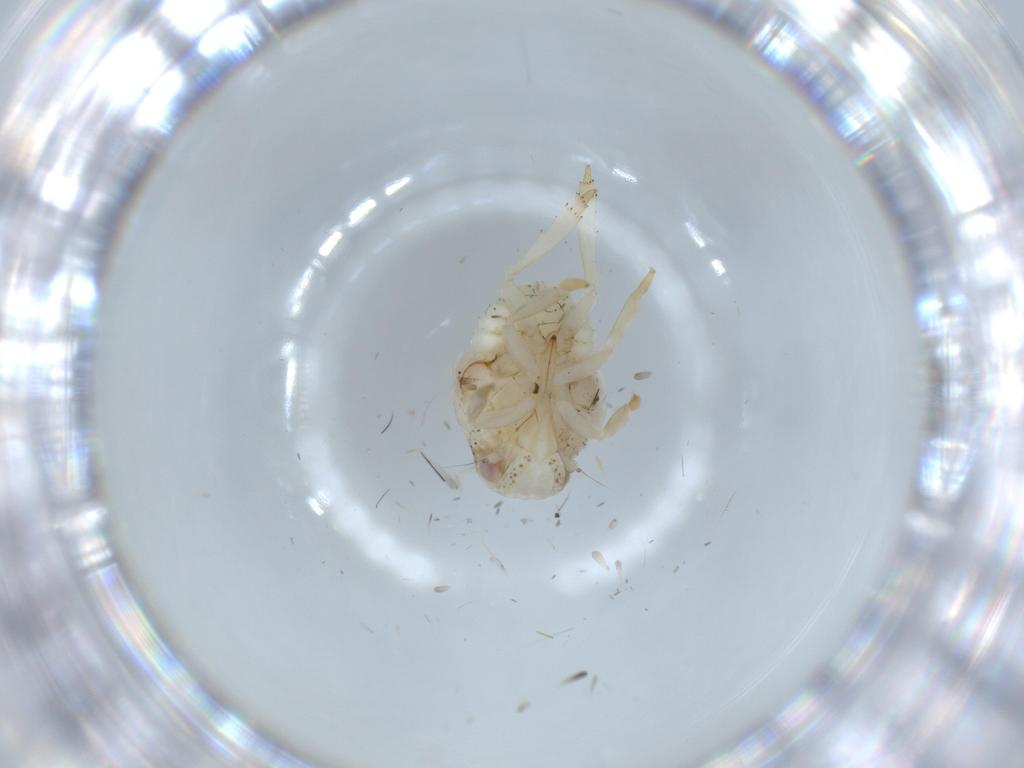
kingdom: Animalia
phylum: Arthropoda
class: Insecta
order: Hemiptera
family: Acanaloniidae
